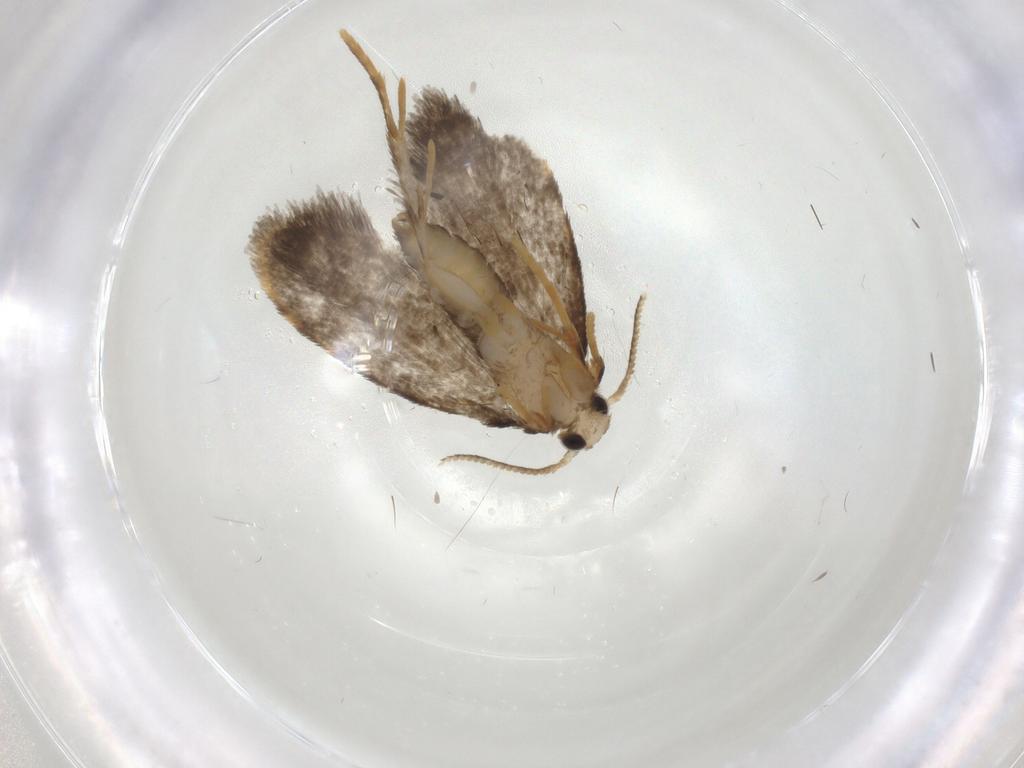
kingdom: Animalia
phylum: Arthropoda
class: Insecta
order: Lepidoptera
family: Psychidae
